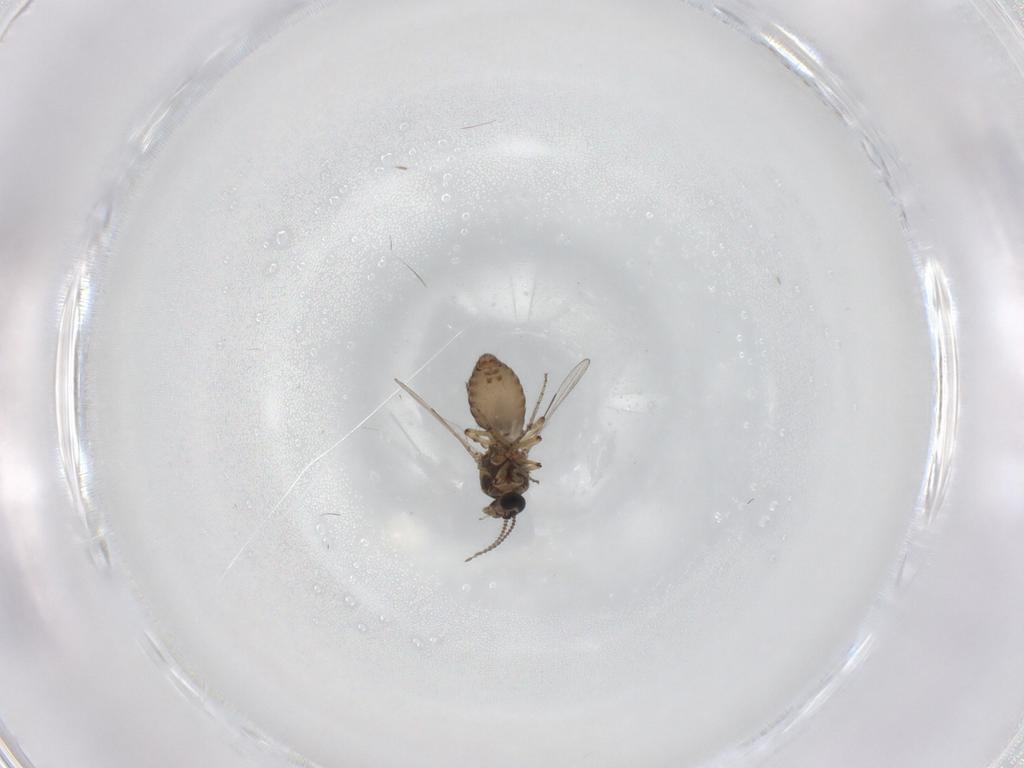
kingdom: Animalia
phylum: Arthropoda
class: Insecta
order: Diptera
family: Ceratopogonidae
